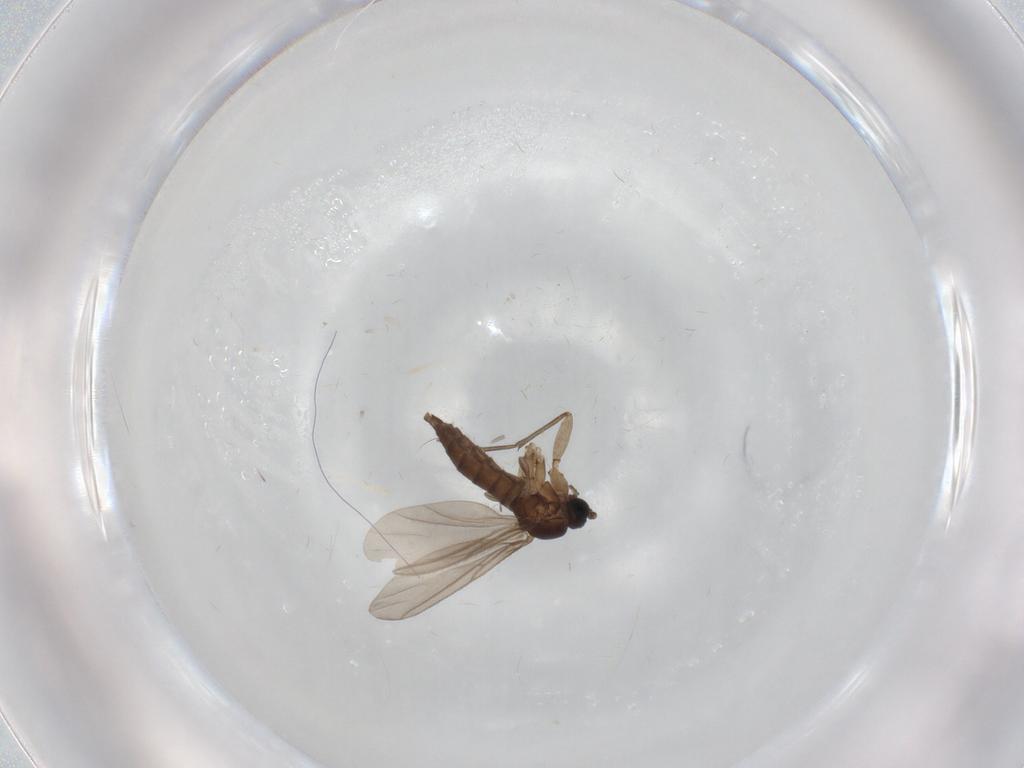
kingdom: Animalia
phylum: Arthropoda
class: Insecta
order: Diptera
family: Sciaridae
